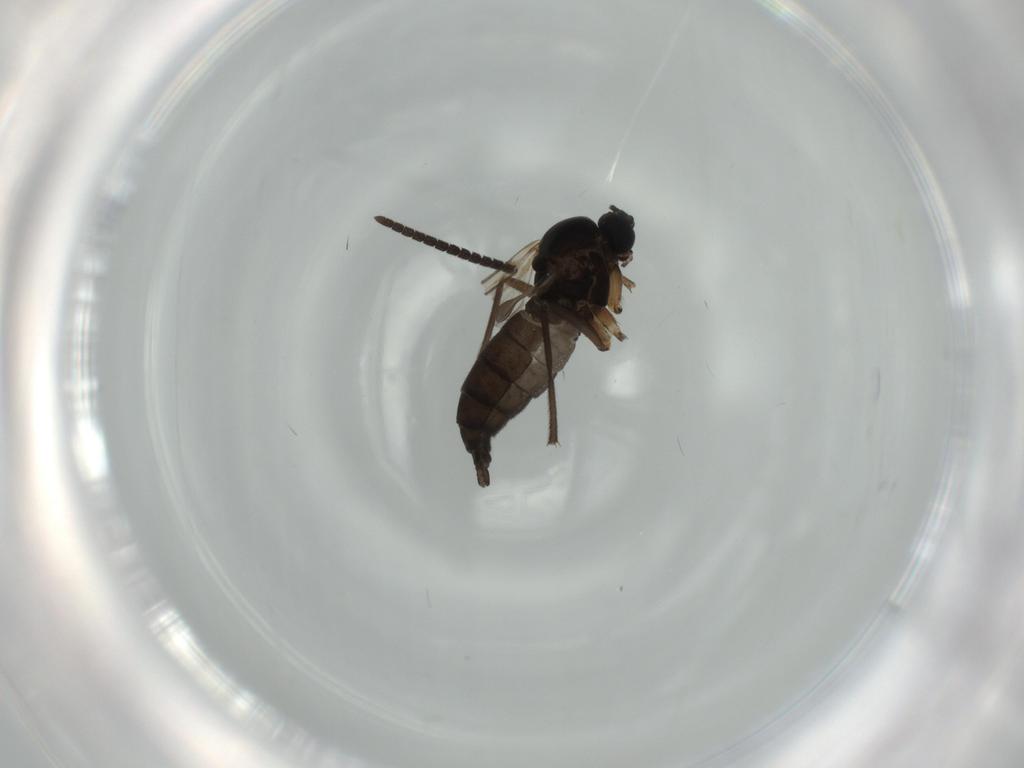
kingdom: Animalia
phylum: Arthropoda
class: Insecta
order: Diptera
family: Sciaridae
